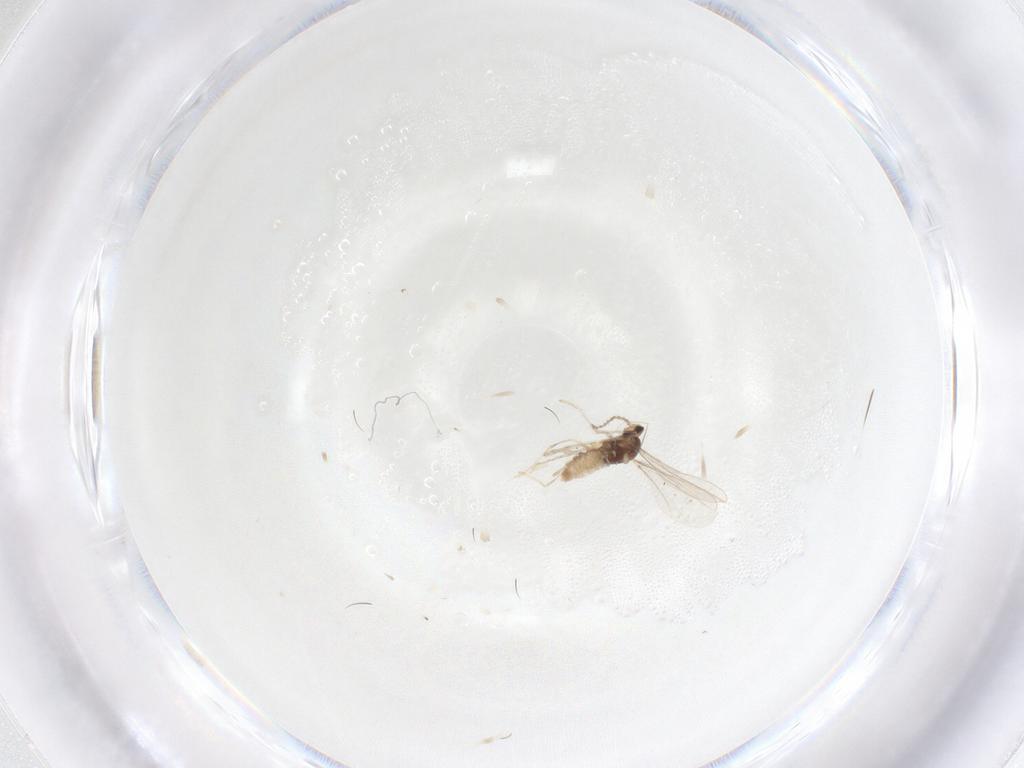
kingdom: Animalia
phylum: Arthropoda
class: Insecta
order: Diptera
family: Cecidomyiidae
